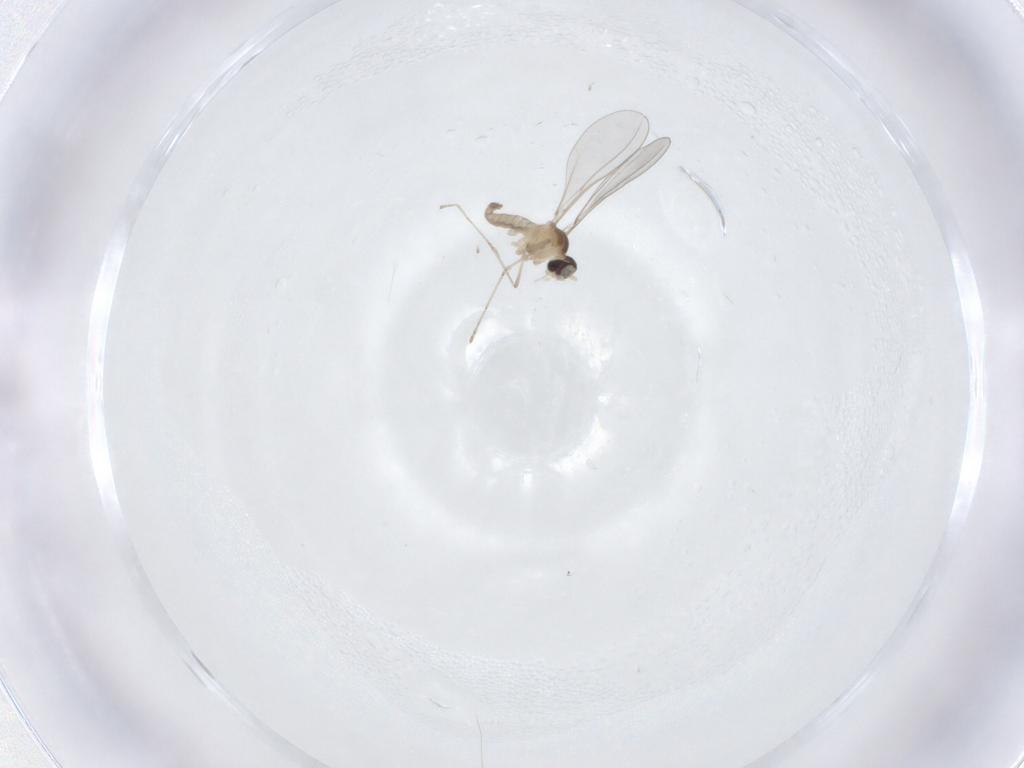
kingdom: Animalia
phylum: Arthropoda
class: Insecta
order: Diptera
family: Cecidomyiidae
